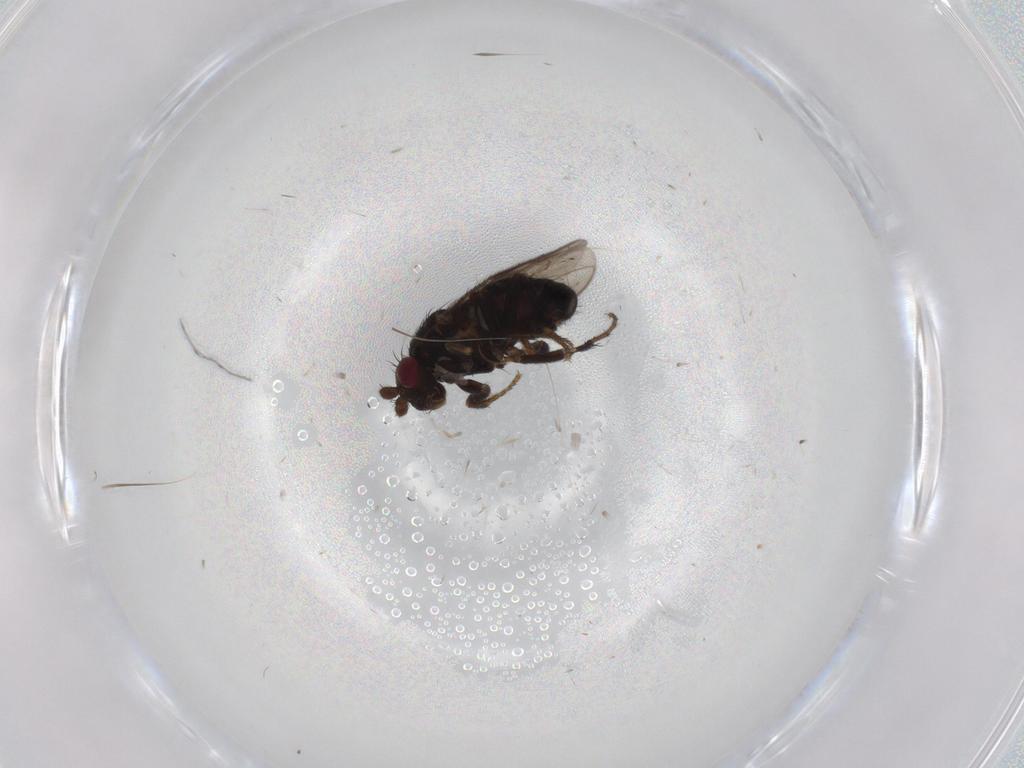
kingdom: Animalia
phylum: Arthropoda
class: Insecta
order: Diptera
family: Sphaeroceridae
